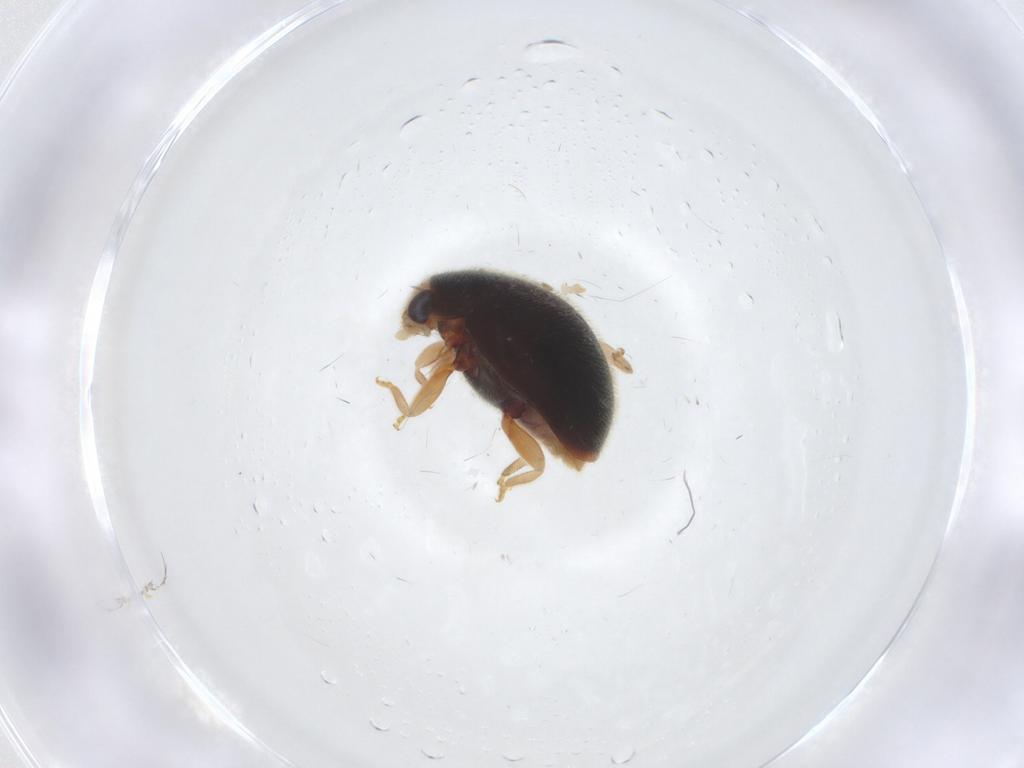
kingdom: Animalia
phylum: Arthropoda
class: Insecta
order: Coleoptera
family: Coccinellidae
